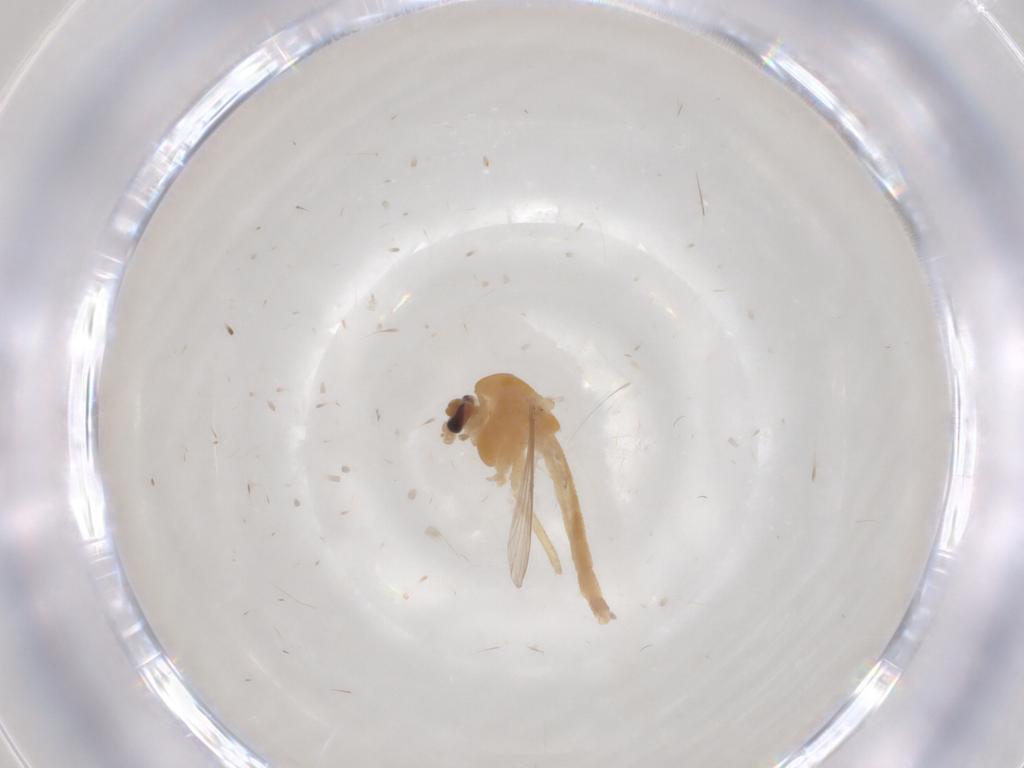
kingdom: Animalia
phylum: Arthropoda
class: Insecta
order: Diptera
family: Chironomidae
